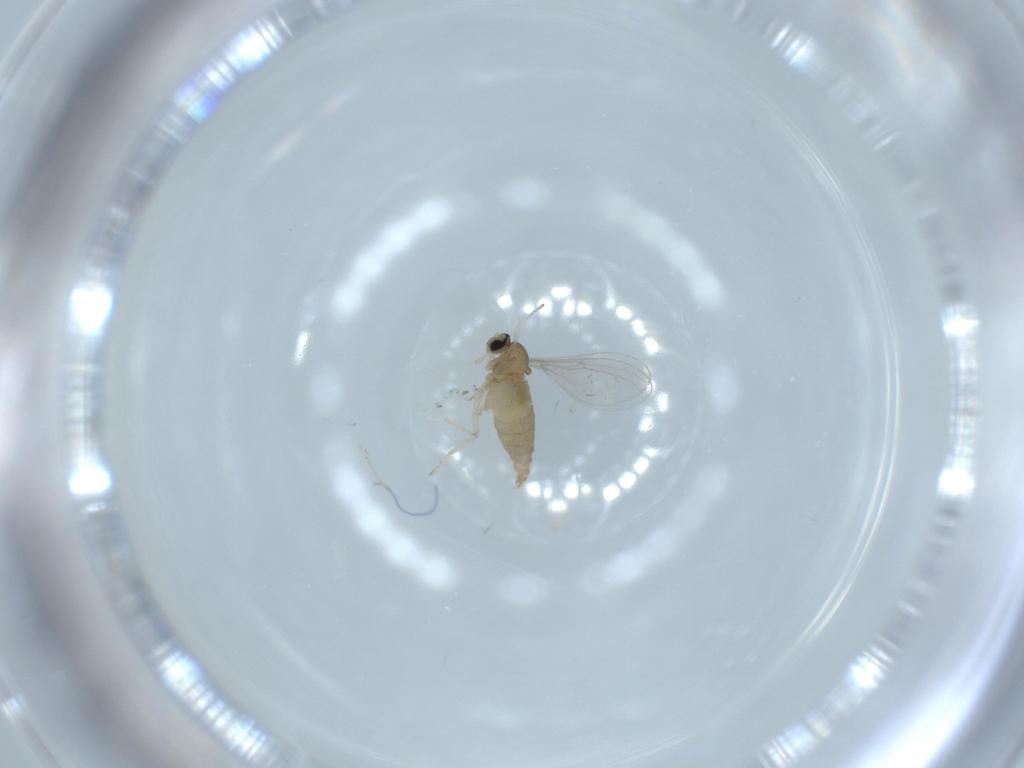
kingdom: Animalia
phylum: Arthropoda
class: Insecta
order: Diptera
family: Cecidomyiidae
